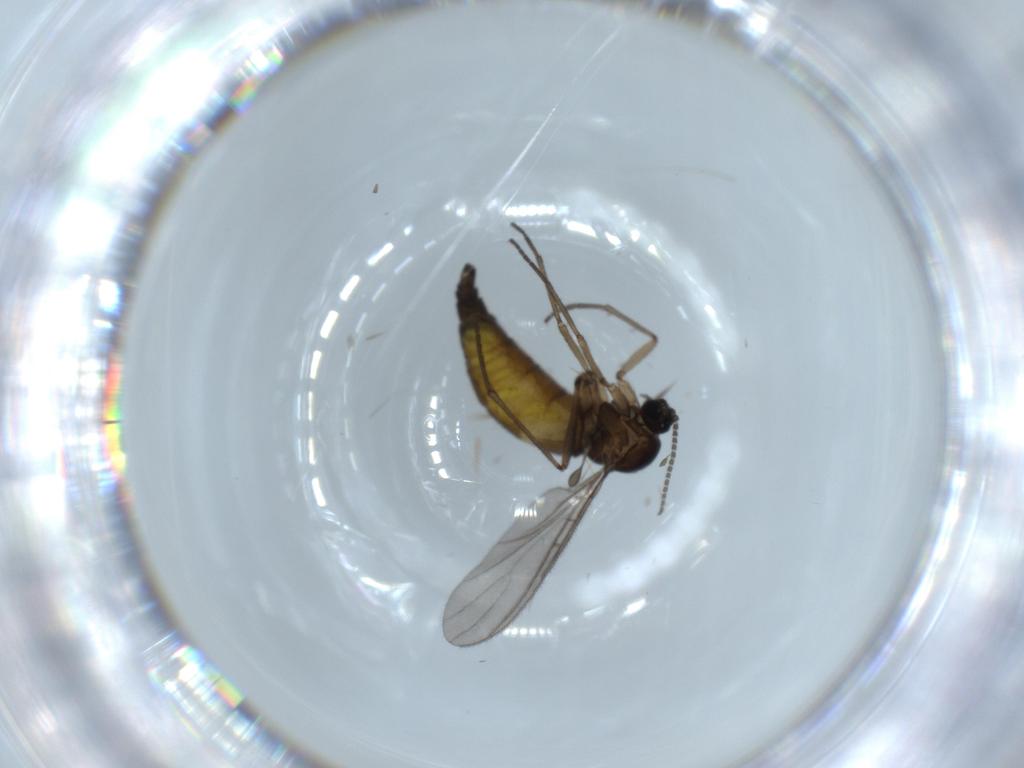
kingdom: Animalia
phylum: Arthropoda
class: Insecta
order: Diptera
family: Sciaridae
